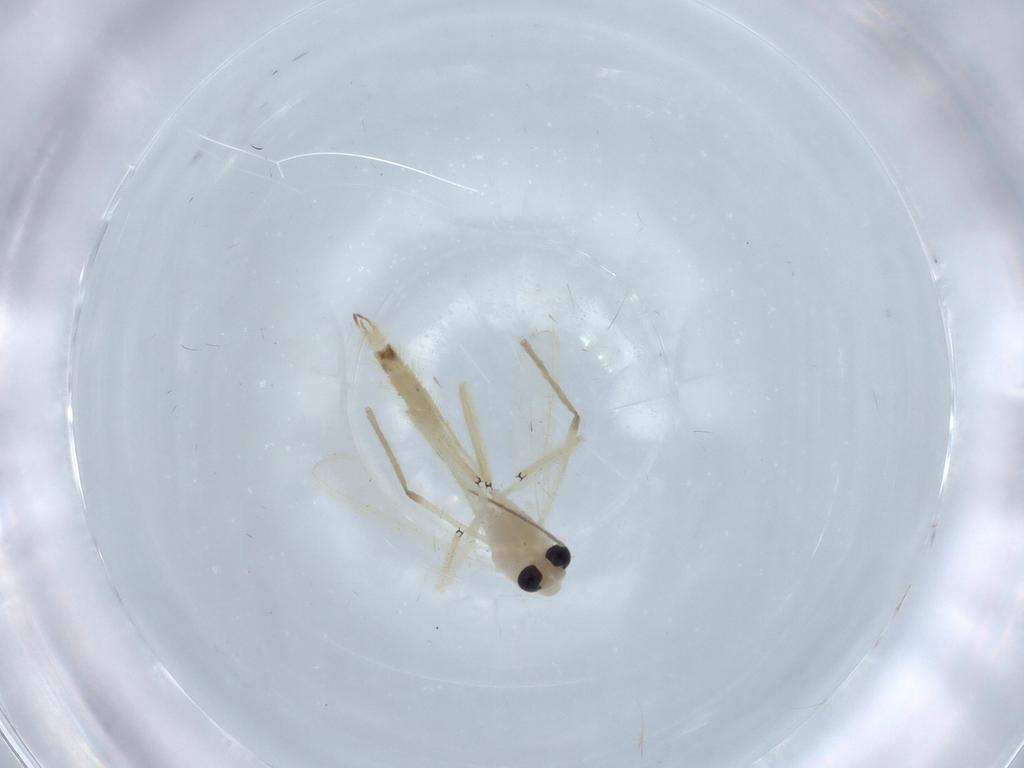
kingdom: Animalia
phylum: Arthropoda
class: Insecta
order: Diptera
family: Chironomidae
